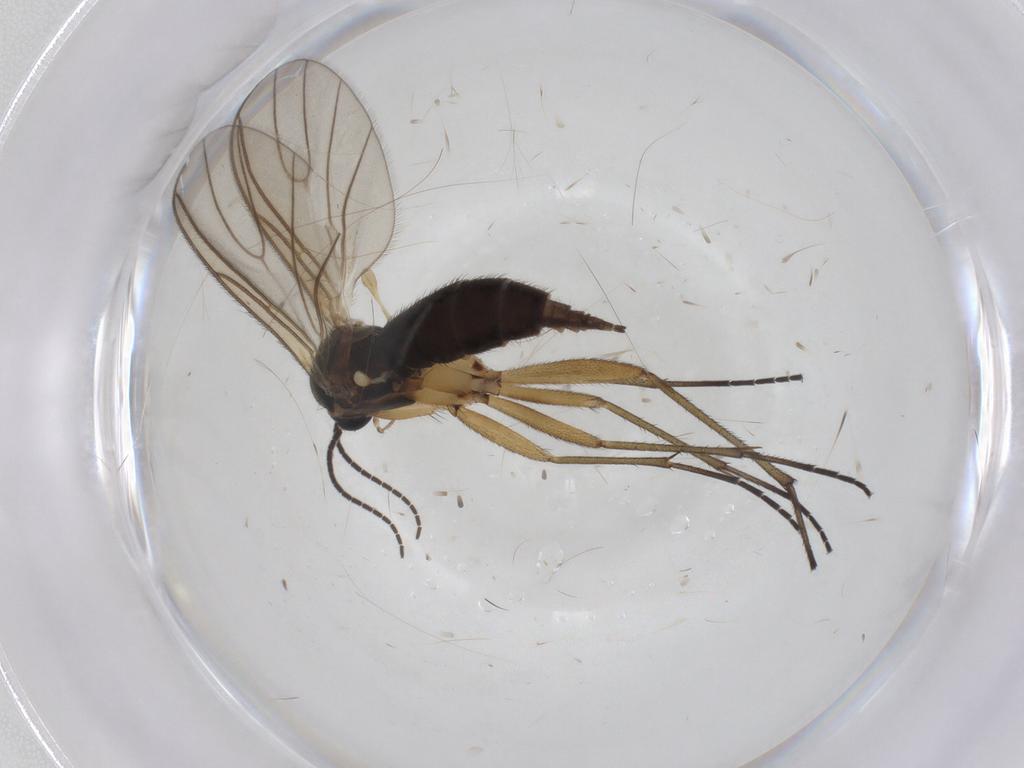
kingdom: Animalia
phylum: Arthropoda
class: Insecta
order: Diptera
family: Sciaridae
